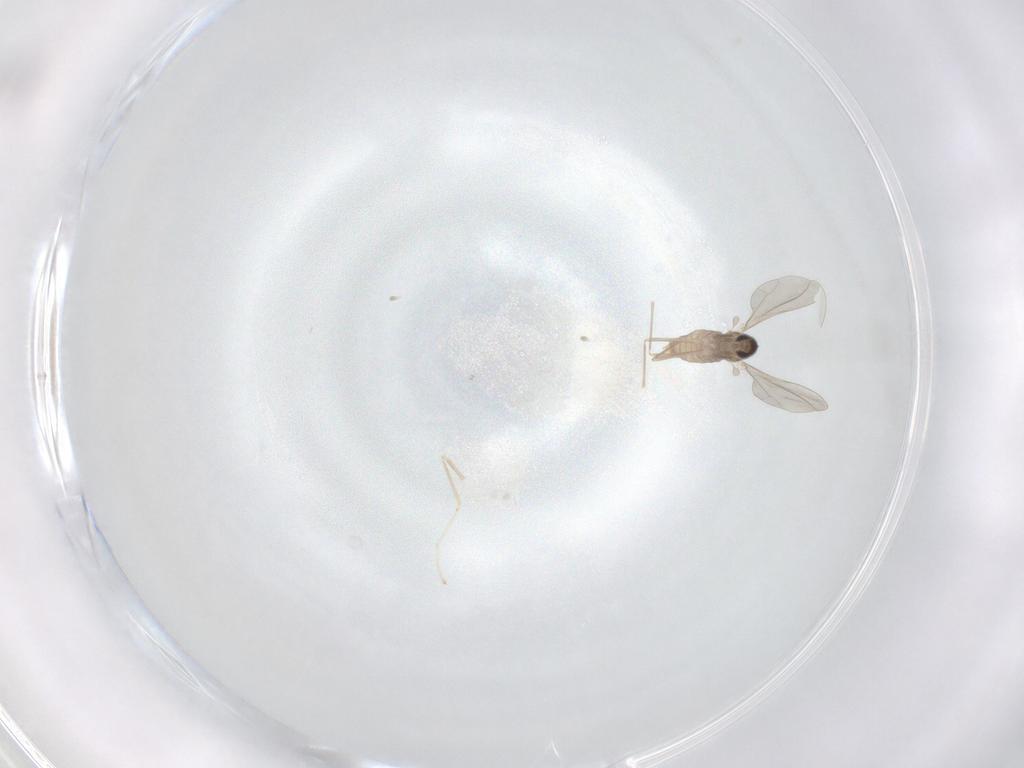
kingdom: Animalia
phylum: Arthropoda
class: Insecta
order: Diptera
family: Cecidomyiidae
